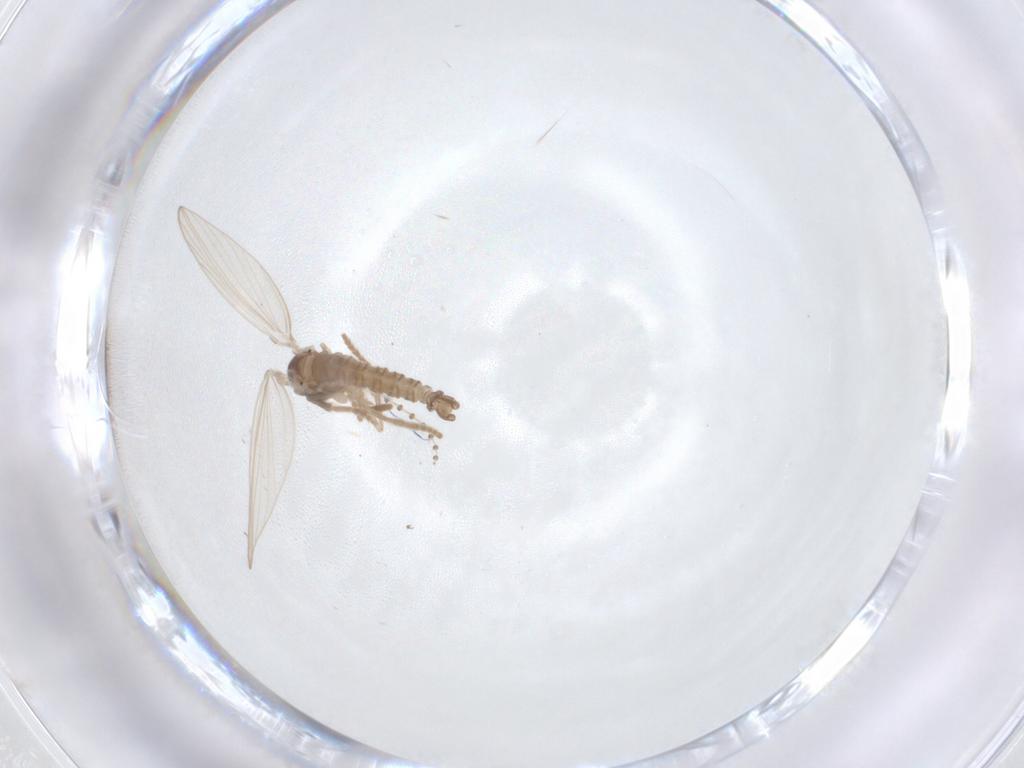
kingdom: Animalia
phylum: Arthropoda
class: Insecta
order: Diptera
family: Psychodidae
